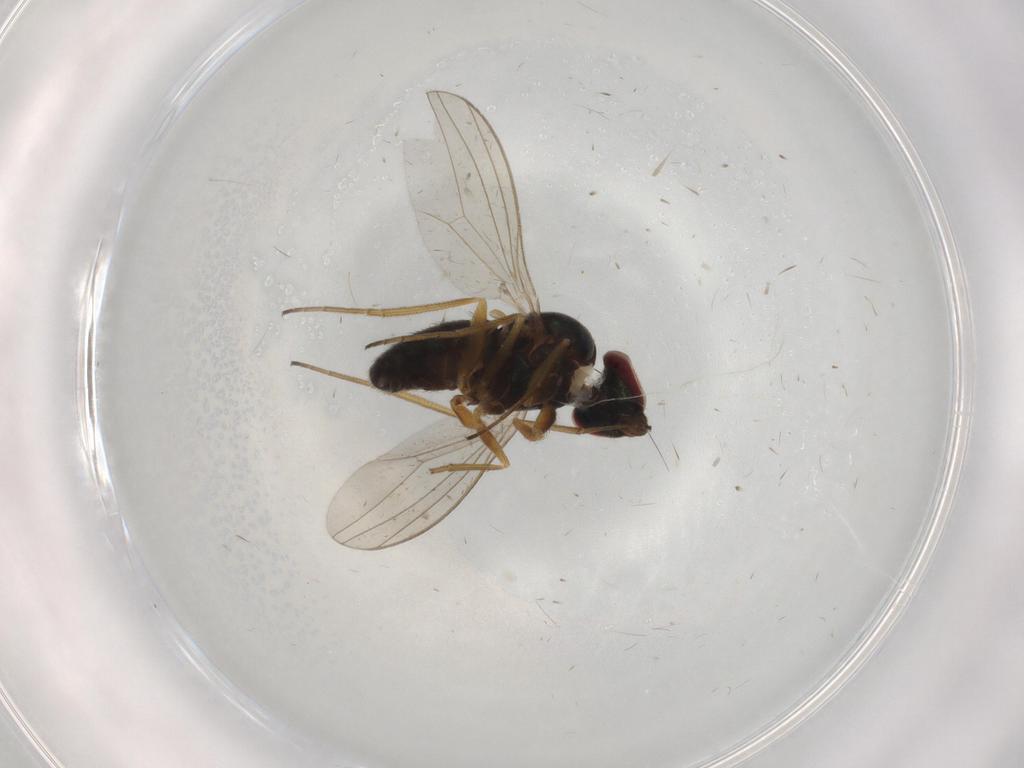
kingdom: Animalia
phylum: Arthropoda
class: Insecta
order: Diptera
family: Dolichopodidae
